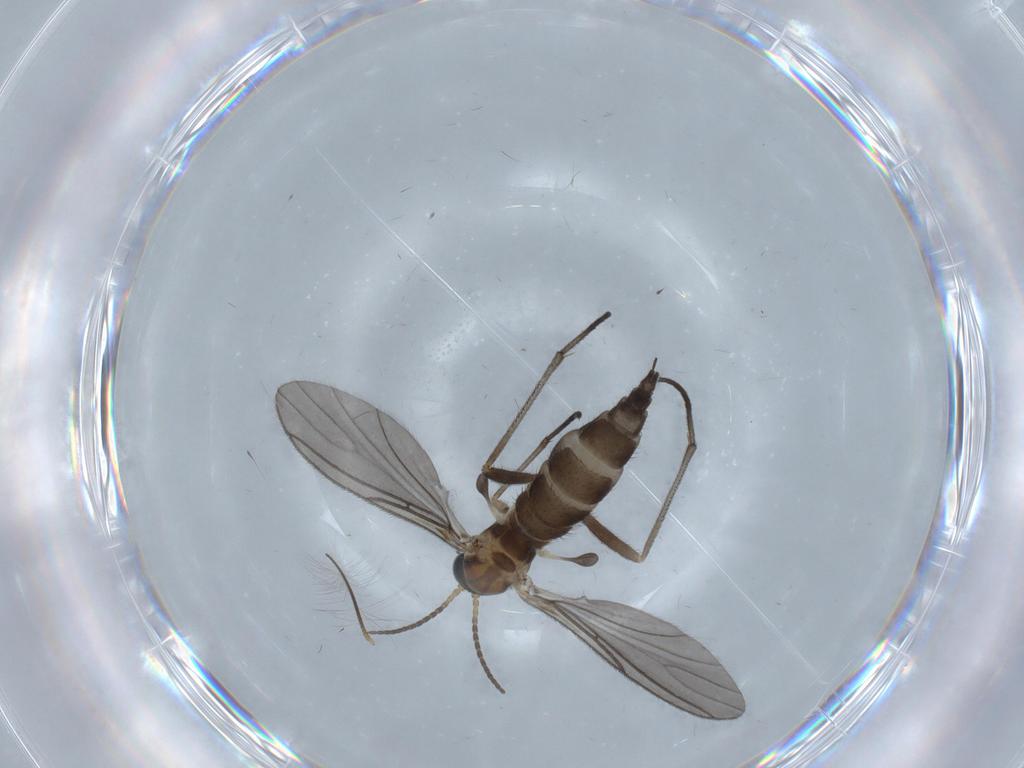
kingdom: Animalia
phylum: Arthropoda
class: Insecta
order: Diptera
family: Sciaridae
